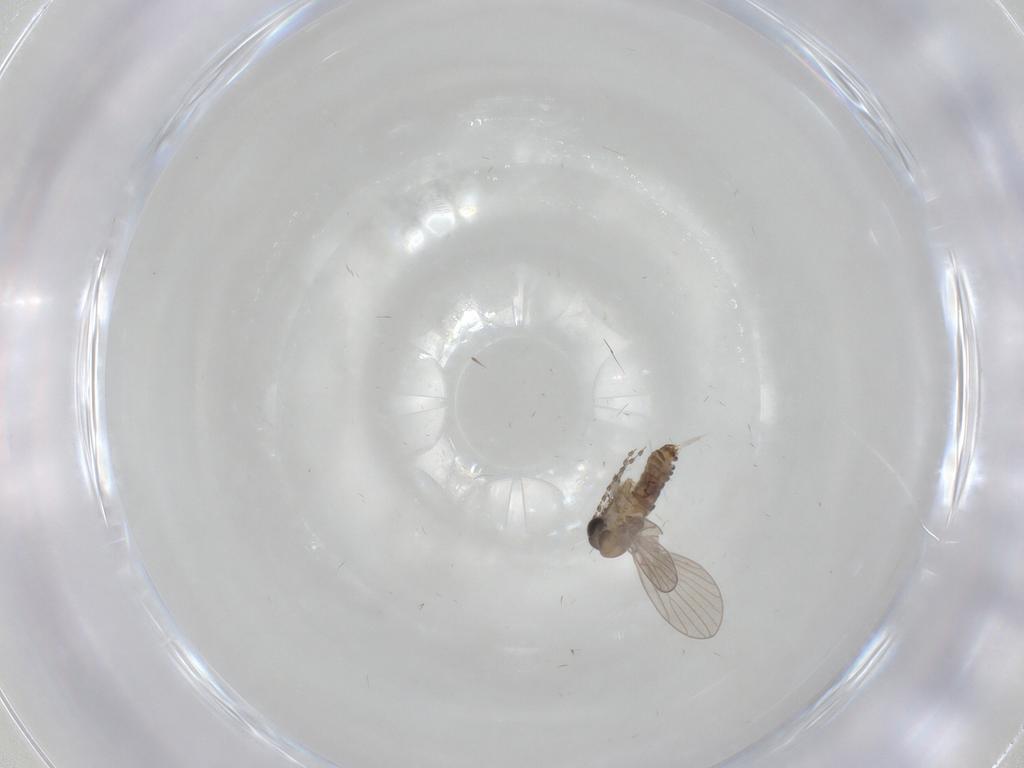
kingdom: Animalia
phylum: Arthropoda
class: Insecta
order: Diptera
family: Psychodidae
